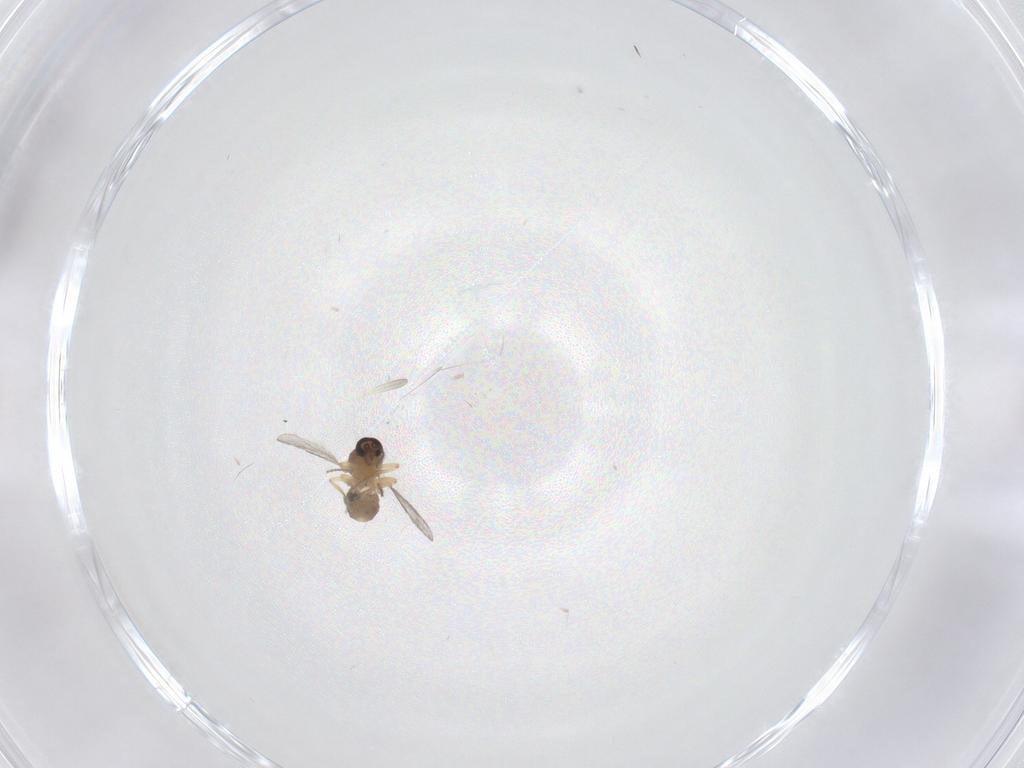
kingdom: Animalia
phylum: Arthropoda
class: Insecta
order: Diptera
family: Ceratopogonidae
